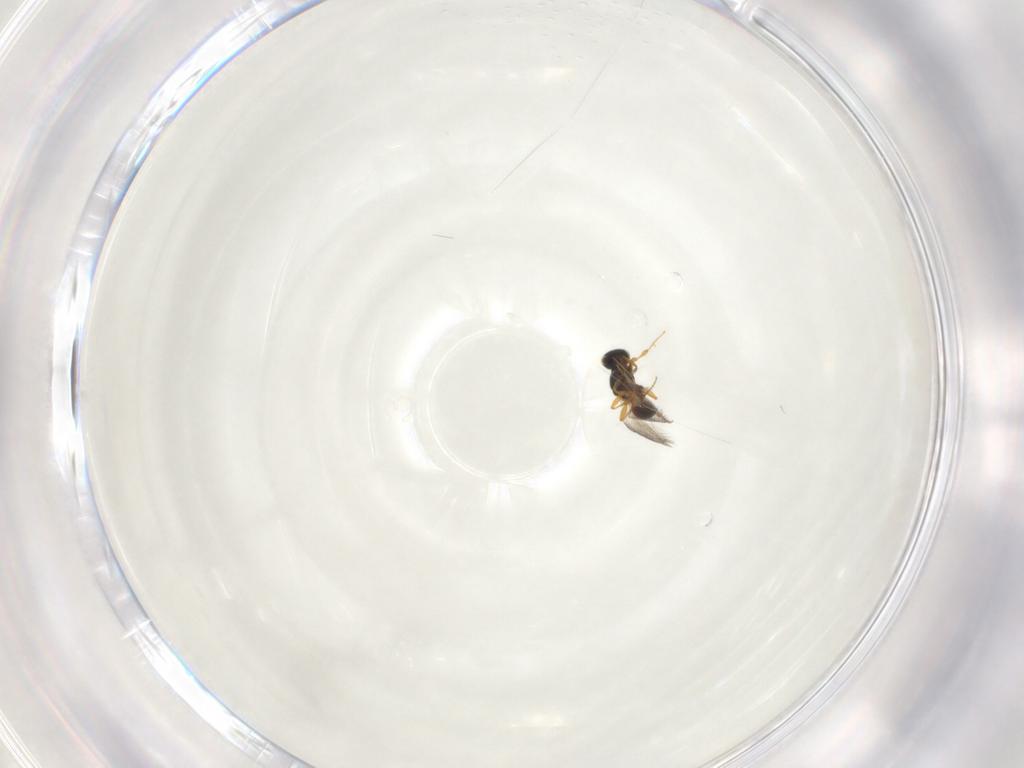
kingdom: Animalia
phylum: Arthropoda
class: Insecta
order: Hymenoptera
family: Platygastridae
